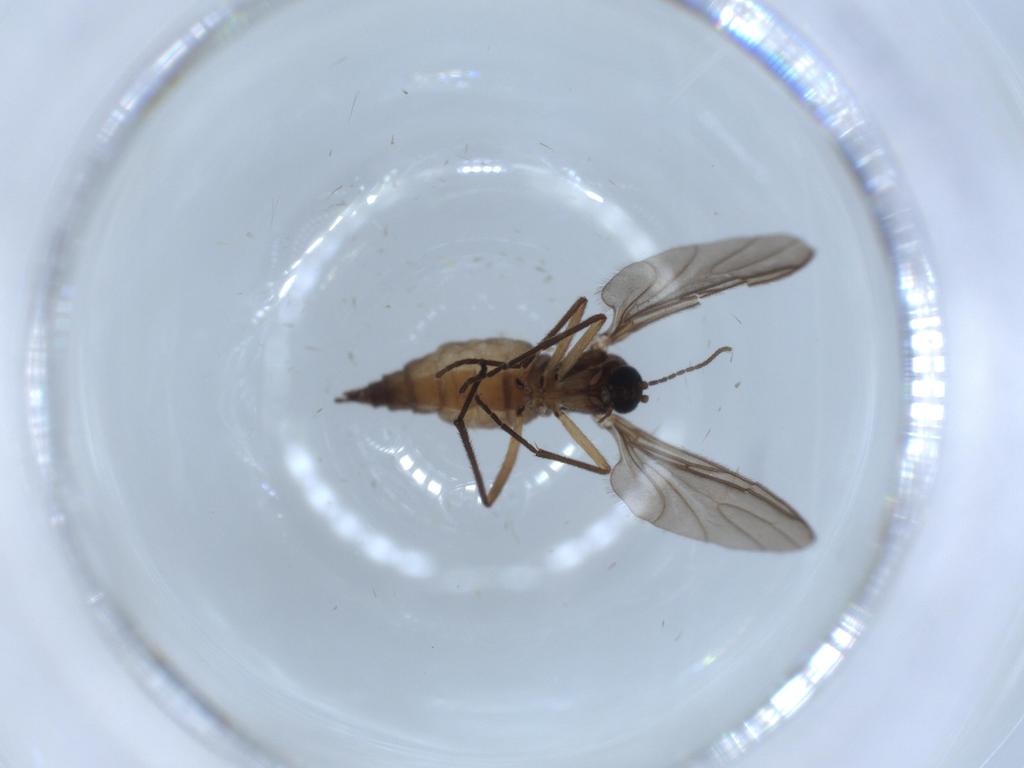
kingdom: Animalia
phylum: Arthropoda
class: Insecta
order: Diptera
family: Sciaridae
